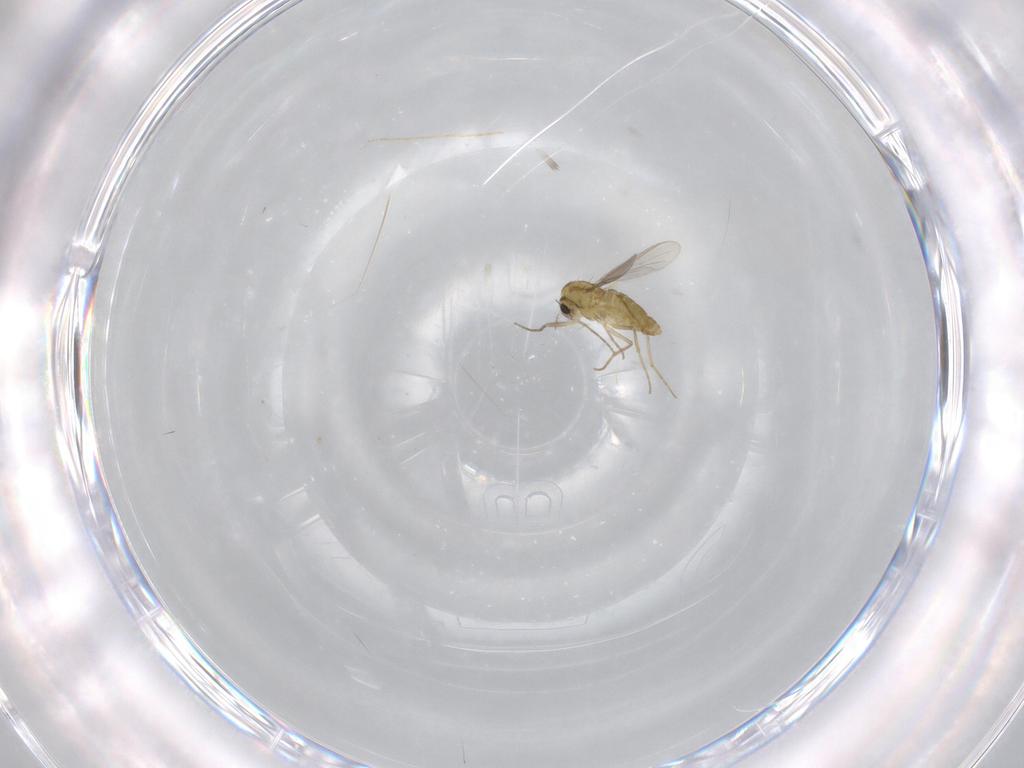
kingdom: Animalia
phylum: Arthropoda
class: Insecta
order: Diptera
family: Chironomidae
